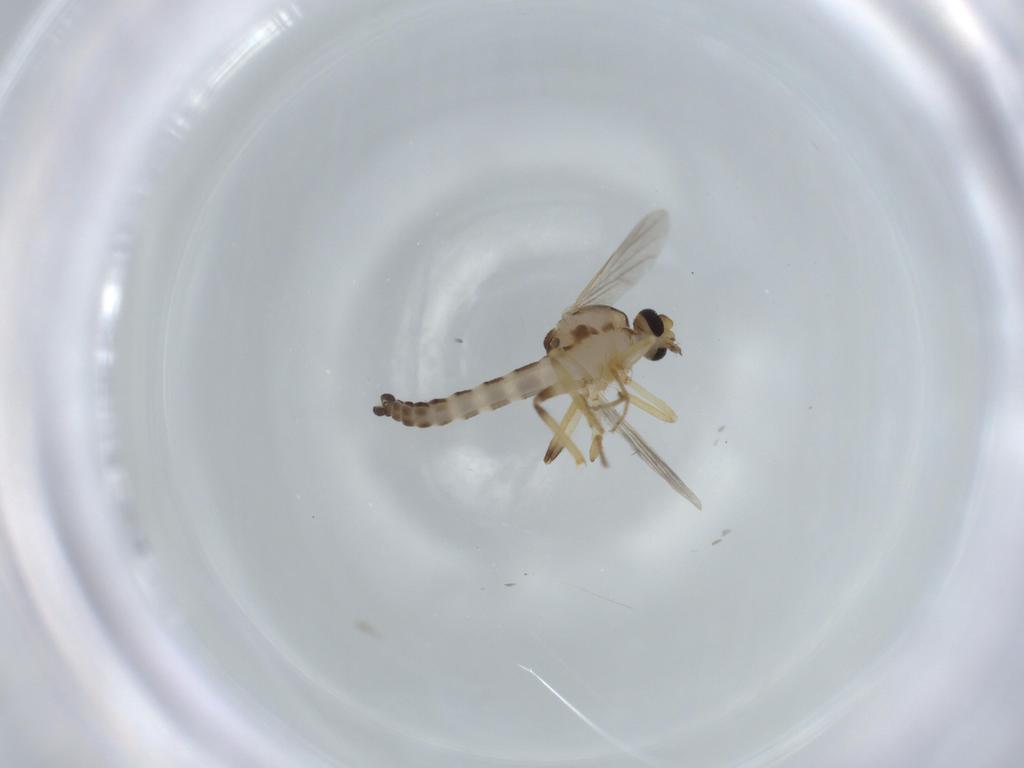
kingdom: Animalia
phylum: Arthropoda
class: Insecta
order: Diptera
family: Ceratopogonidae
